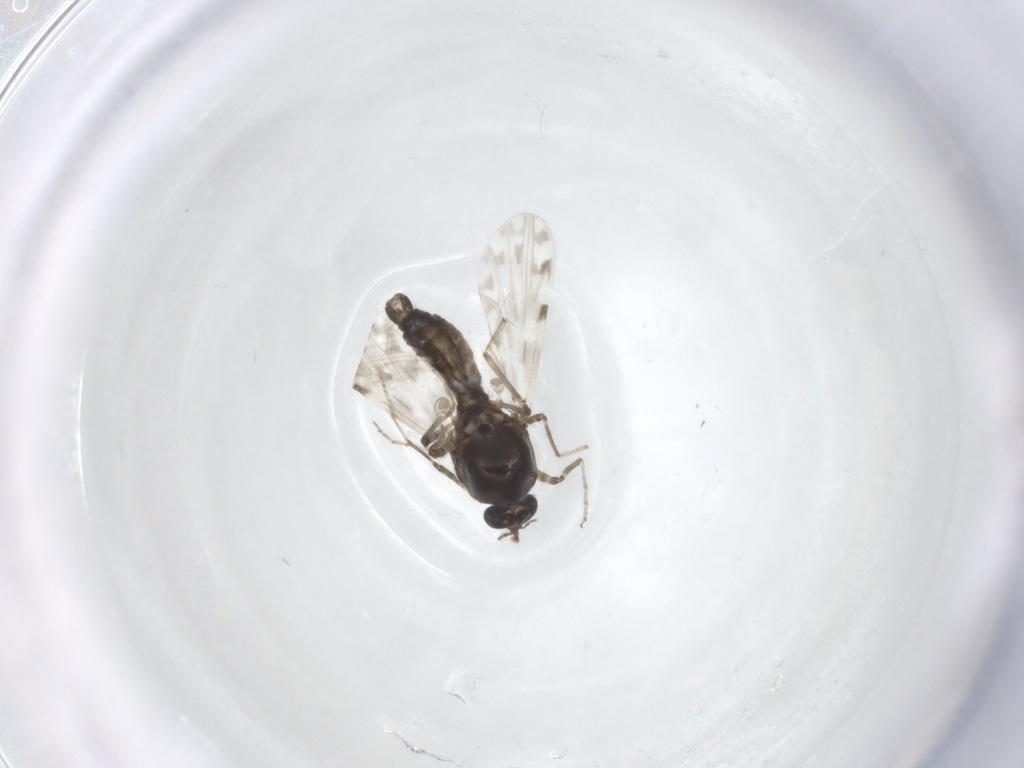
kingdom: Animalia
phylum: Arthropoda
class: Insecta
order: Diptera
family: Ceratopogonidae
